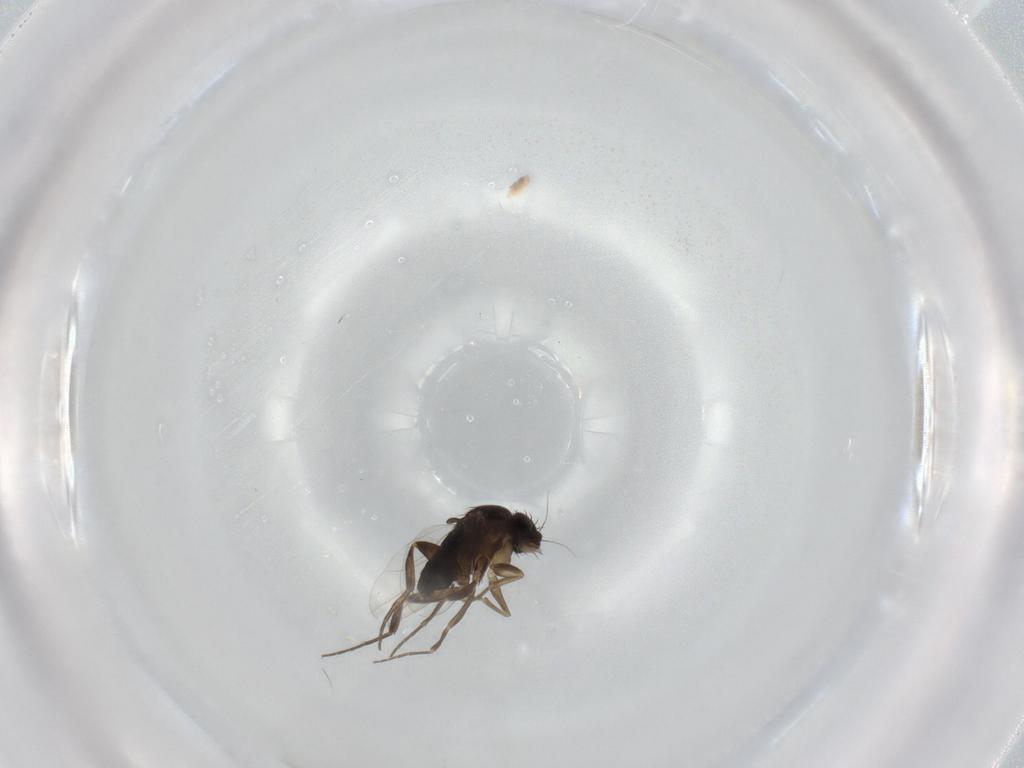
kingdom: Animalia
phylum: Arthropoda
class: Insecta
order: Diptera
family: Phoridae
